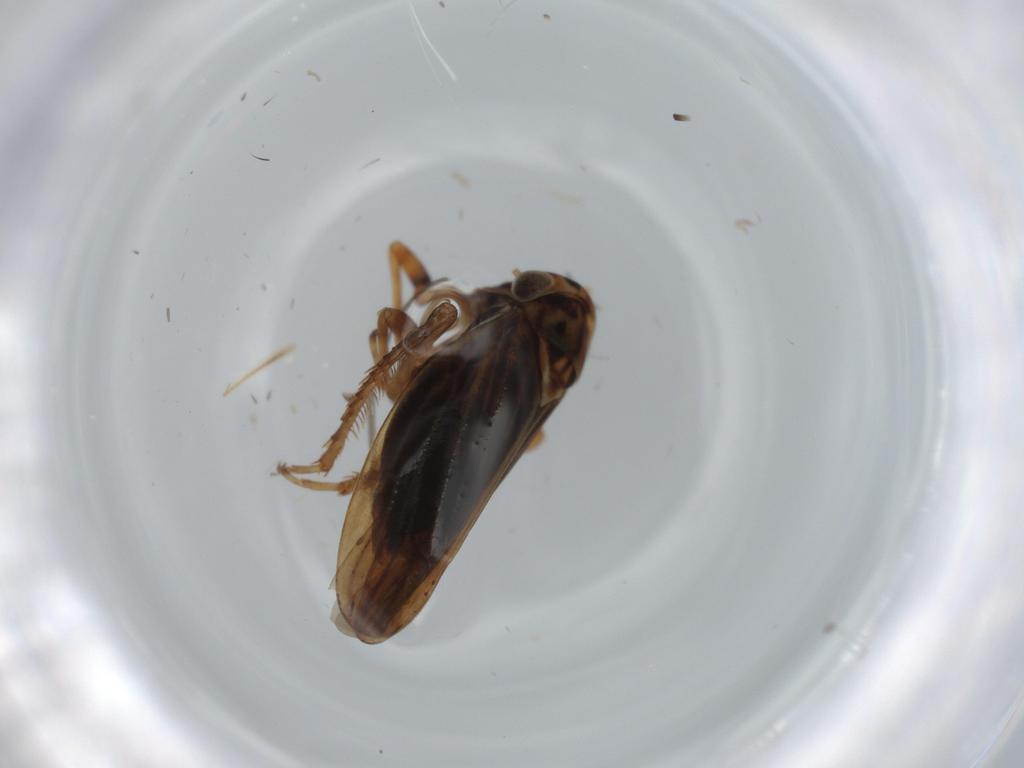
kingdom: Animalia
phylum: Arthropoda
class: Insecta
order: Hemiptera
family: Cicadellidae
